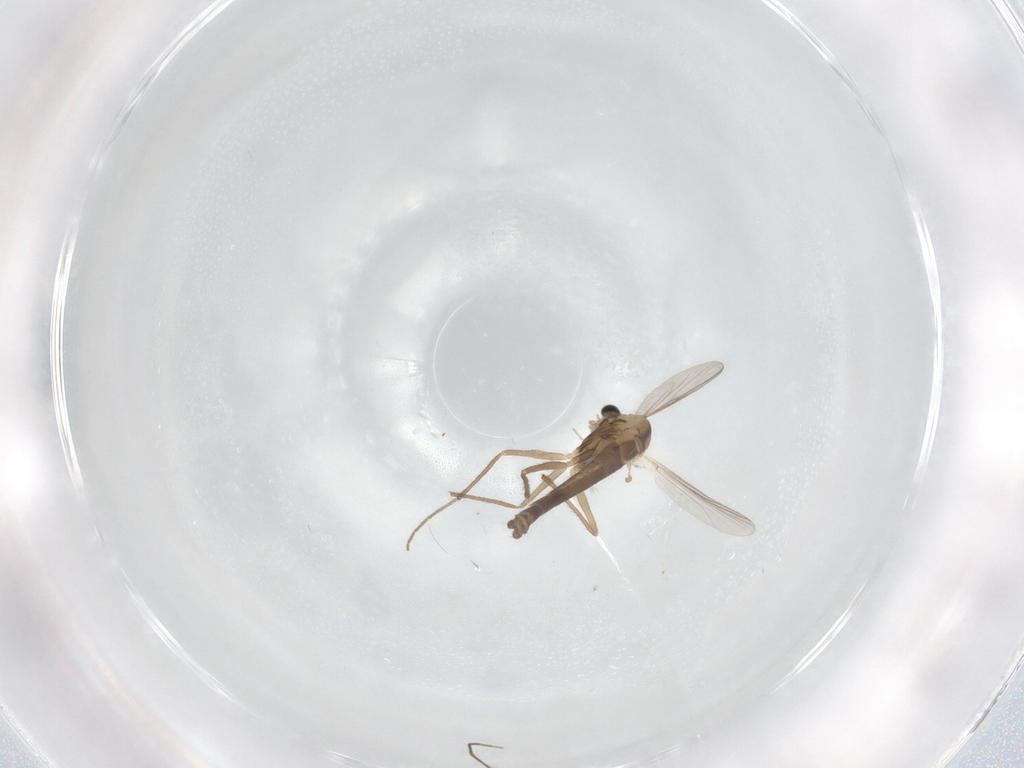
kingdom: Animalia
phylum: Arthropoda
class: Insecta
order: Diptera
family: Chironomidae
